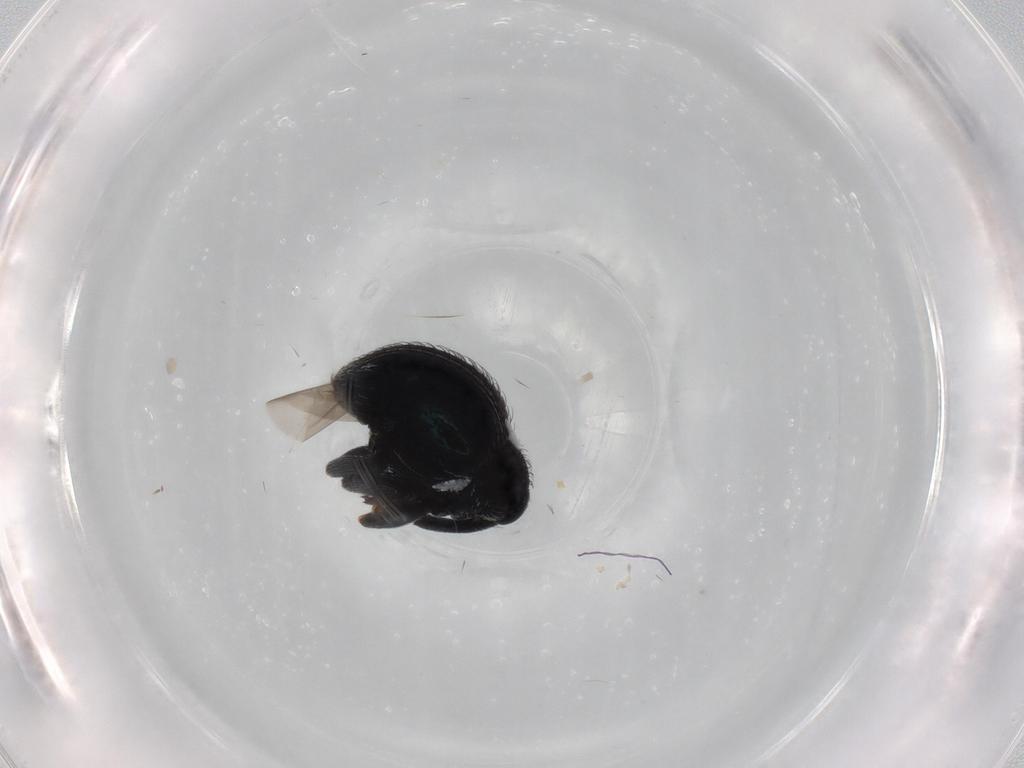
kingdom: Animalia
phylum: Arthropoda
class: Insecta
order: Coleoptera
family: Curculionidae
